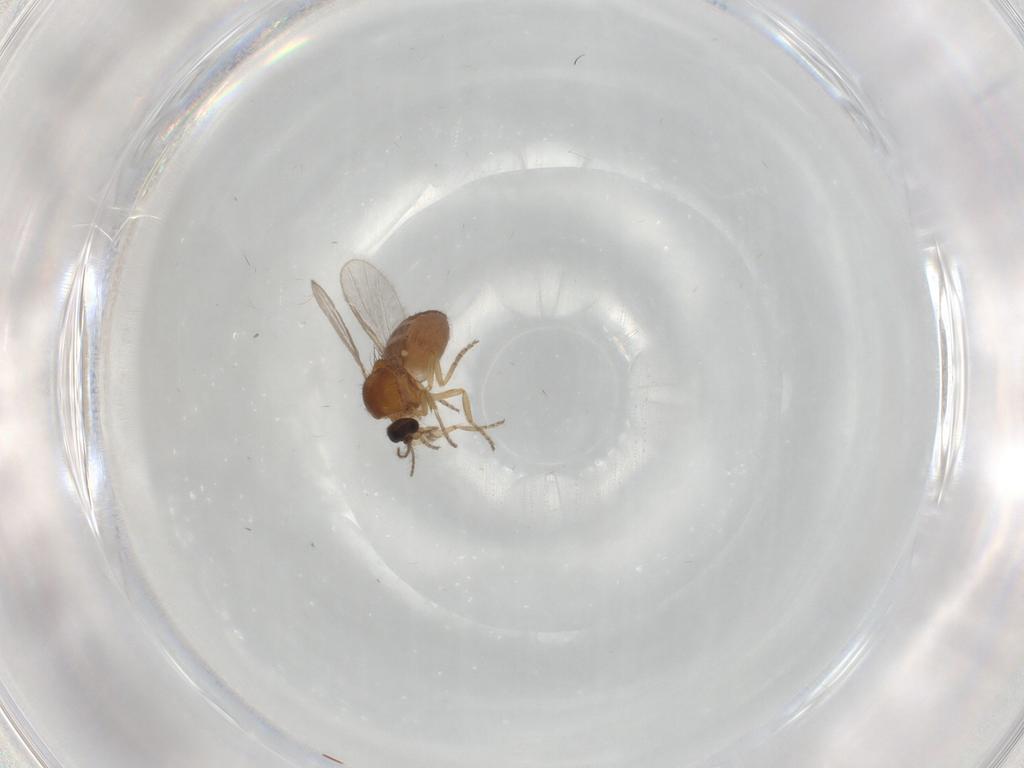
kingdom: Animalia
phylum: Arthropoda
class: Insecta
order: Diptera
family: Ceratopogonidae
